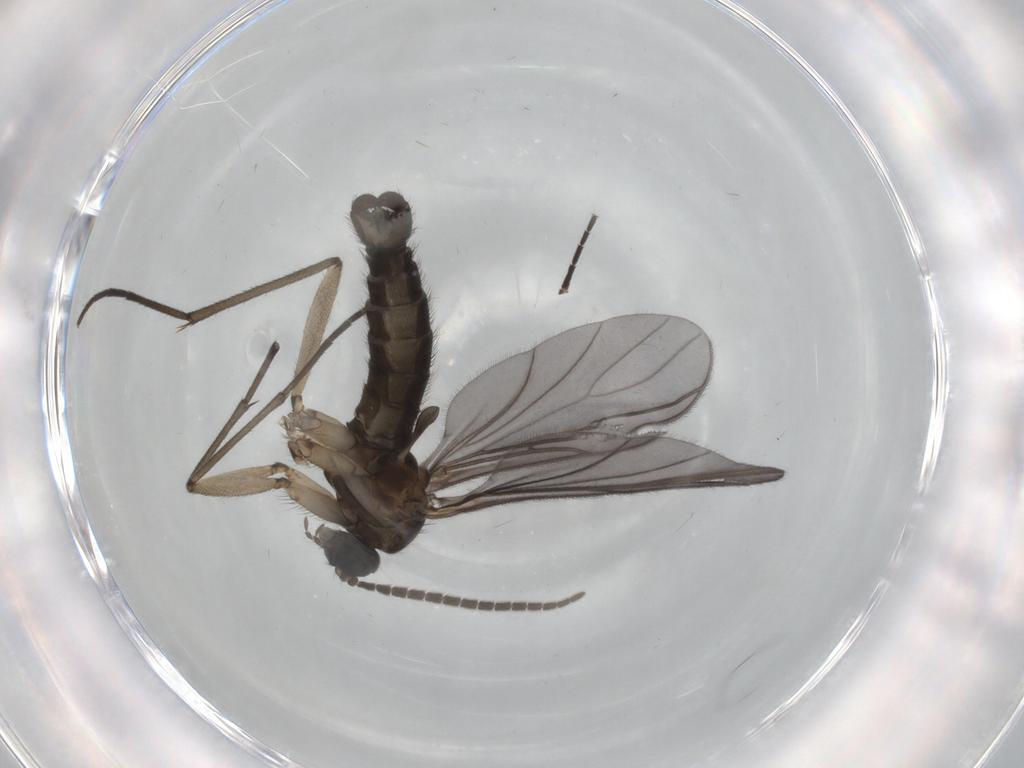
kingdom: Animalia
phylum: Arthropoda
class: Insecta
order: Diptera
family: Sciaridae
